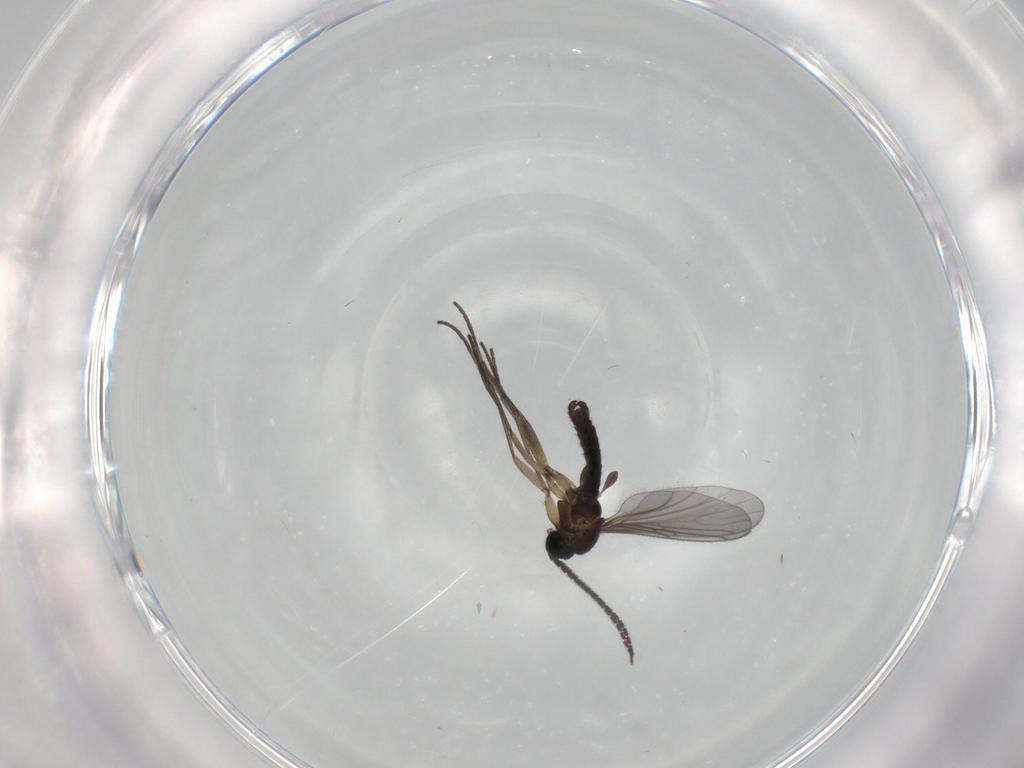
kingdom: Animalia
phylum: Arthropoda
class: Insecta
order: Diptera
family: Sciaridae
